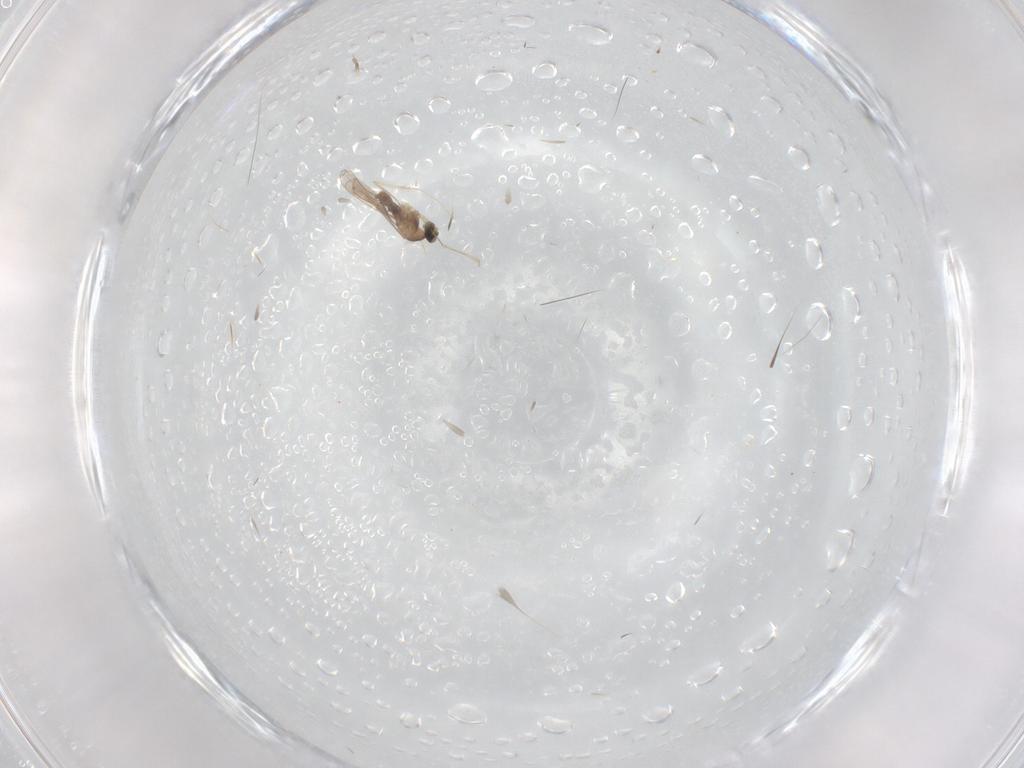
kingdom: Animalia
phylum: Arthropoda
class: Insecta
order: Diptera
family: Corethrellidae
